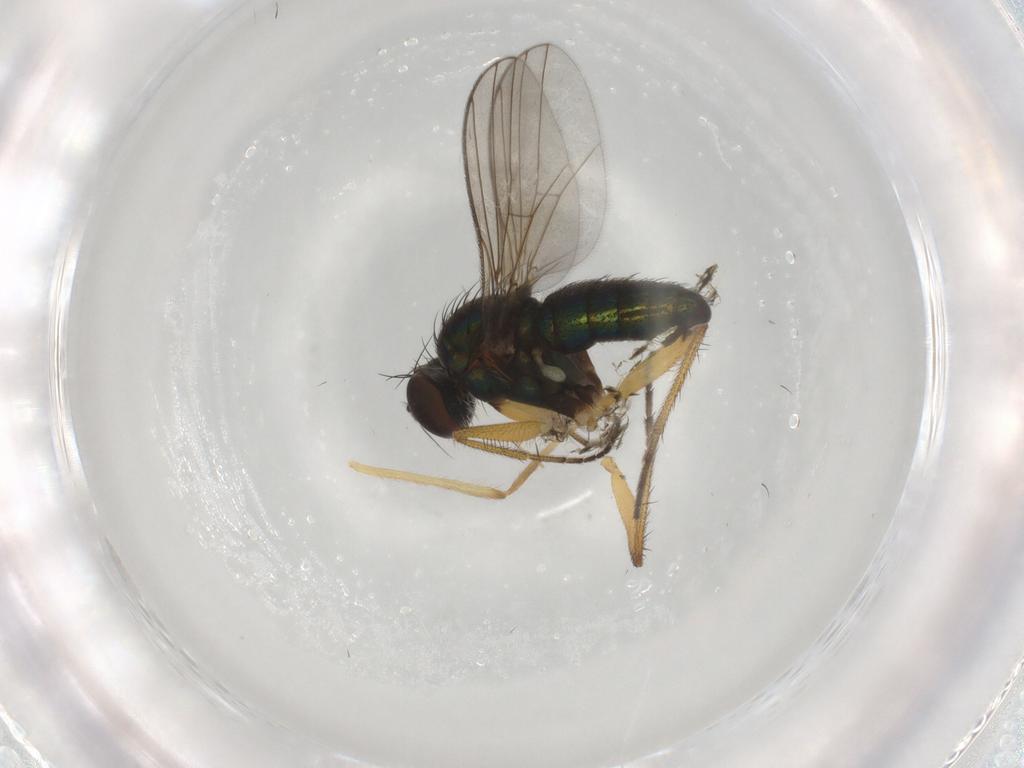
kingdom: Animalia
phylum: Arthropoda
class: Insecta
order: Diptera
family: Dolichopodidae
